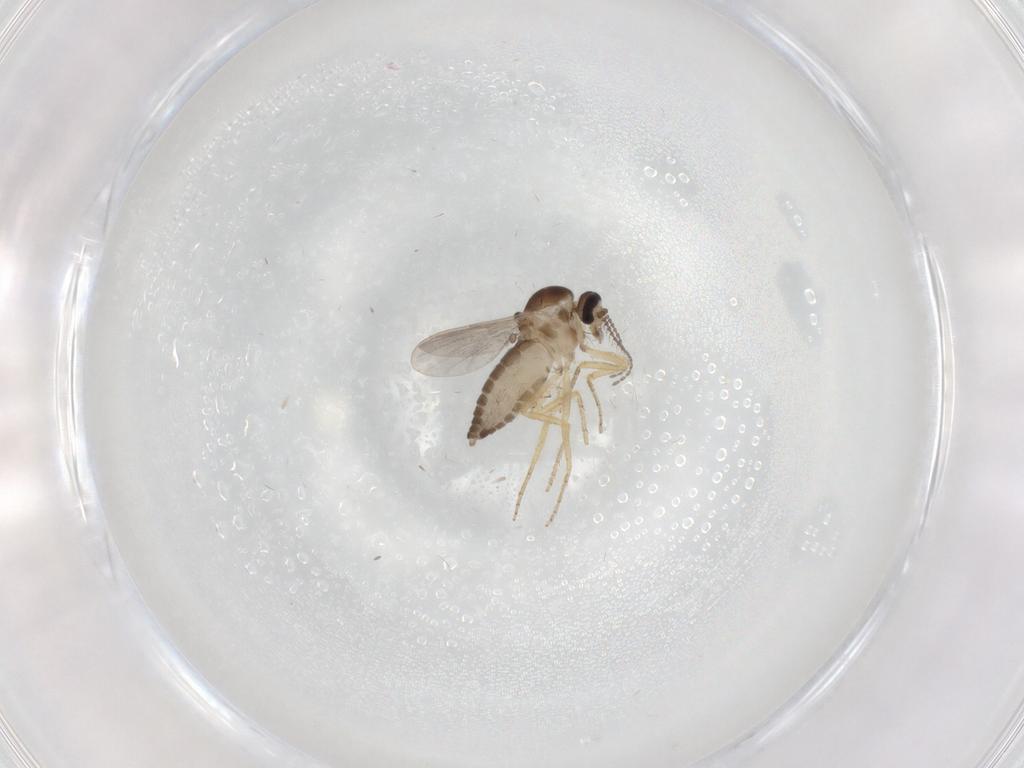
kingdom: Animalia
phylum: Arthropoda
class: Insecta
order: Diptera
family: Ceratopogonidae
